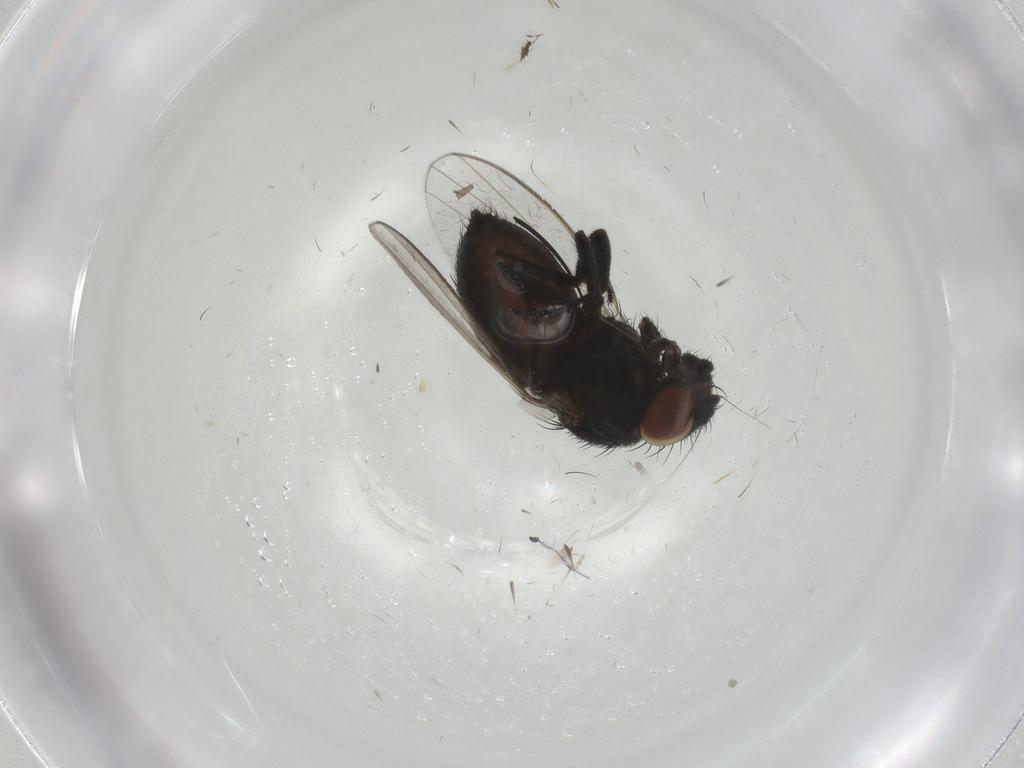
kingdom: Animalia
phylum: Arthropoda
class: Insecta
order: Diptera
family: Milichiidae
